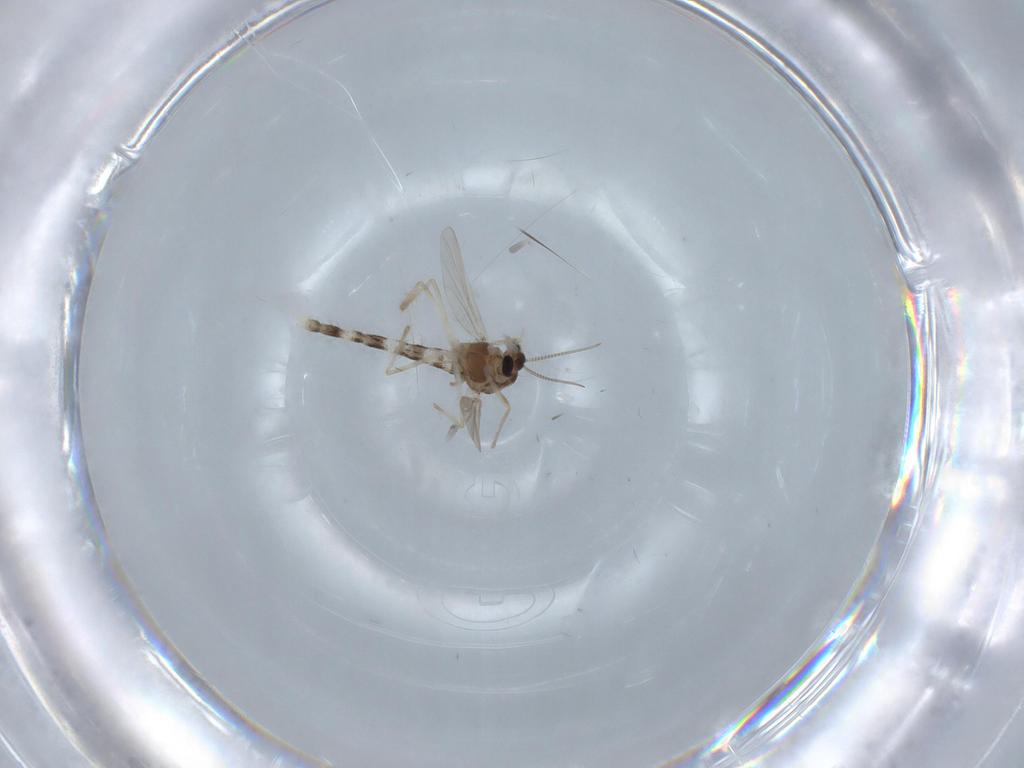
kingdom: Animalia
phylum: Arthropoda
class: Insecta
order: Diptera
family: Chironomidae
